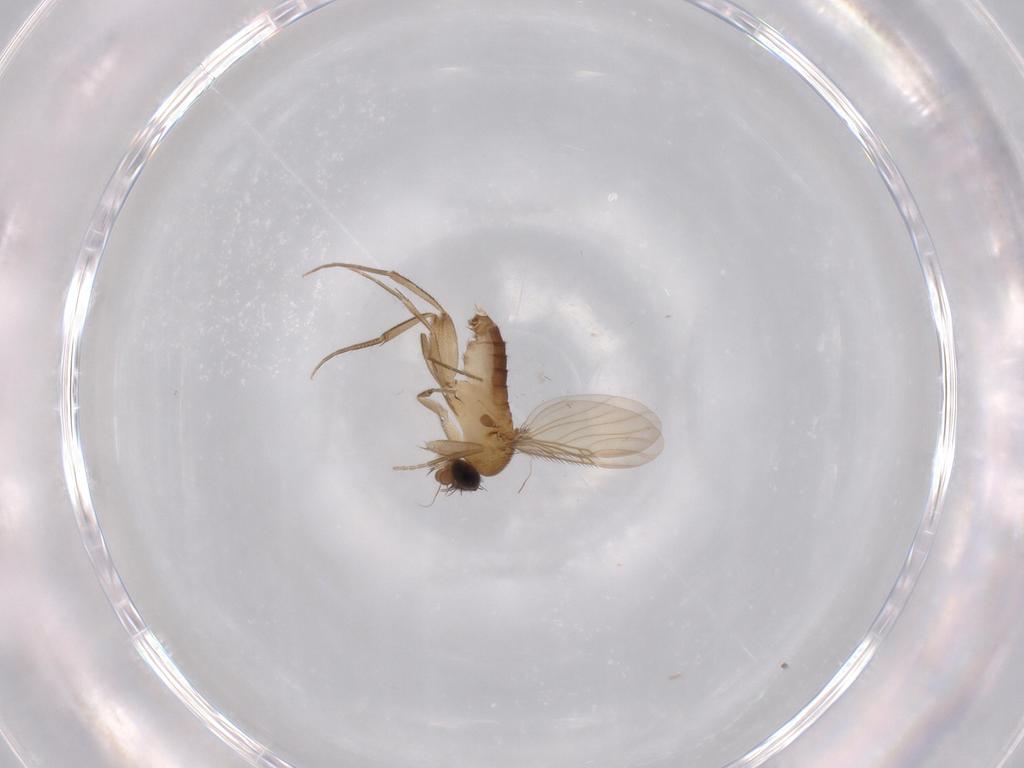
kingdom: Animalia
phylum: Arthropoda
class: Insecta
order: Diptera
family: Phoridae
